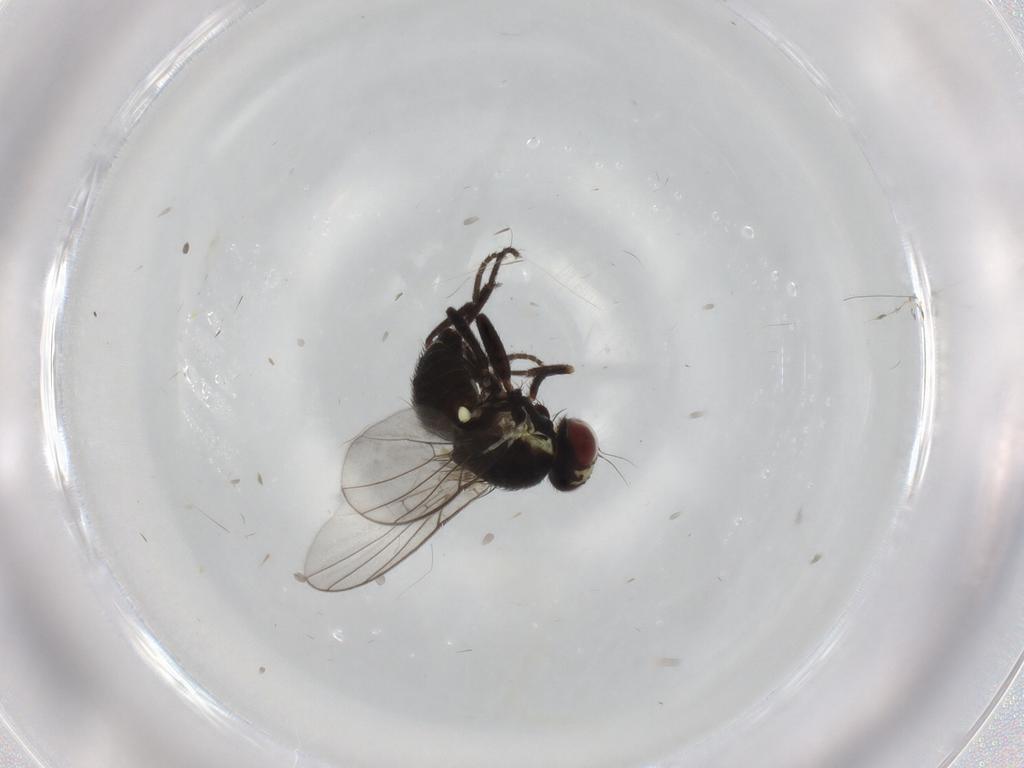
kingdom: Animalia
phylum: Arthropoda
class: Insecta
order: Diptera
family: Agromyzidae
